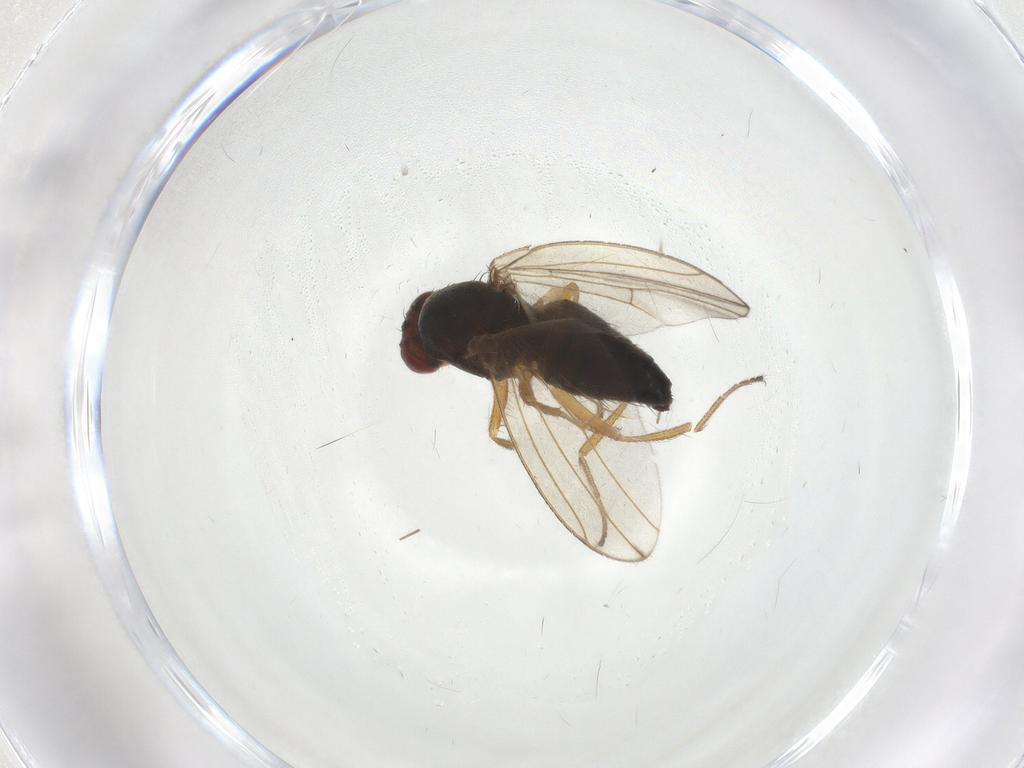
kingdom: Animalia
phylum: Arthropoda
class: Insecta
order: Diptera
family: Drosophilidae
